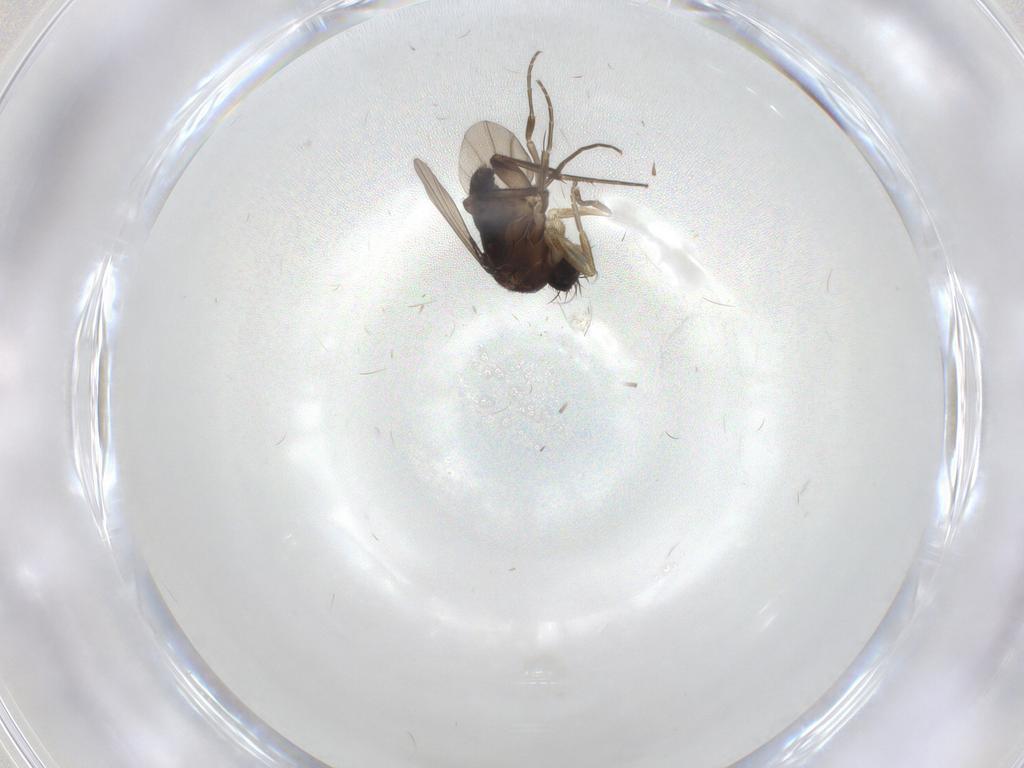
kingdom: Animalia
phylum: Arthropoda
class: Insecta
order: Diptera
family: Phoridae
